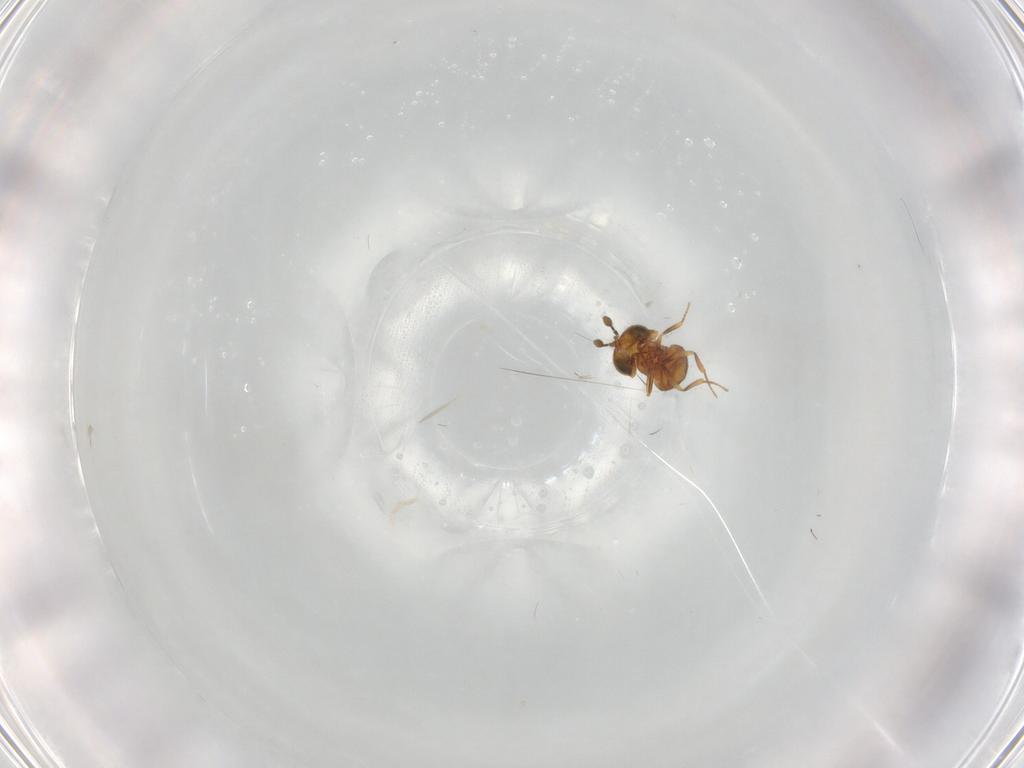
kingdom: Animalia
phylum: Arthropoda
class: Insecta
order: Hymenoptera
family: Scelionidae
